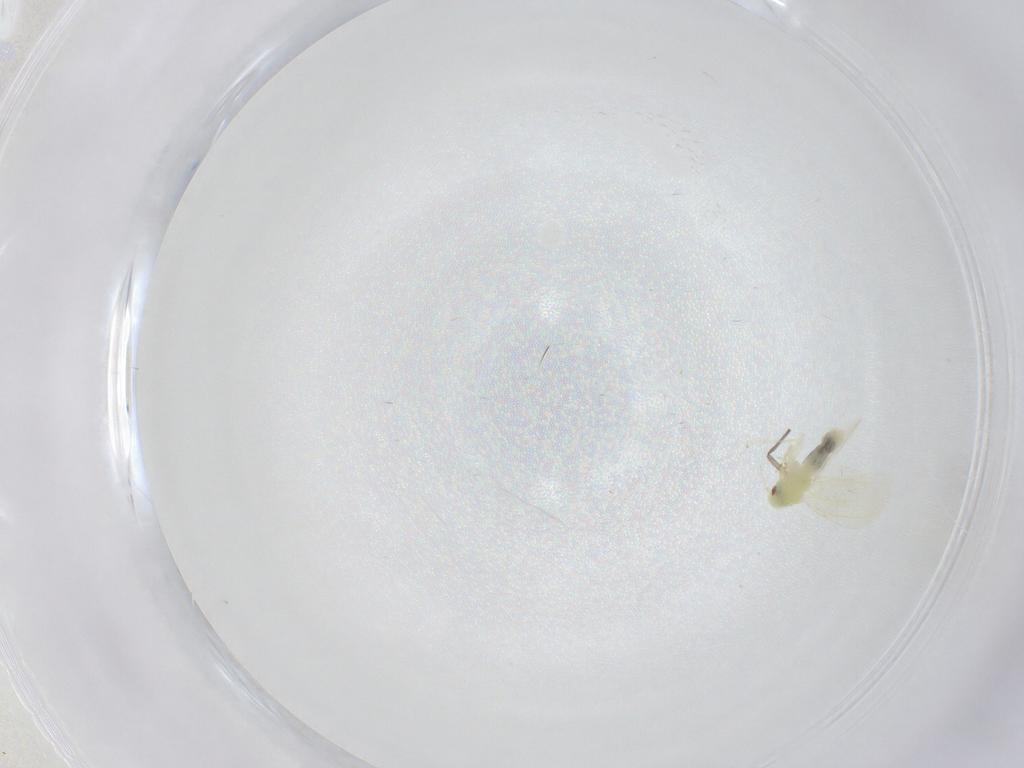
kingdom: Animalia
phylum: Arthropoda
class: Insecta
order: Hemiptera
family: Aleyrodidae
